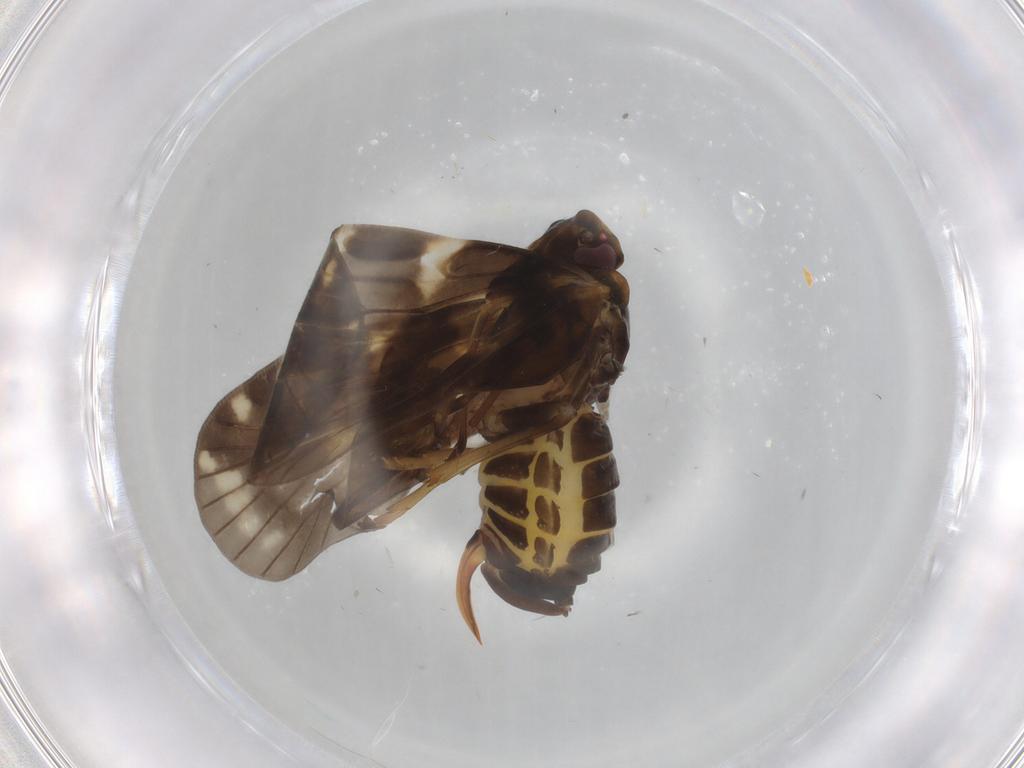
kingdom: Animalia
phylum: Arthropoda
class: Insecta
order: Hemiptera
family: Cixiidae
